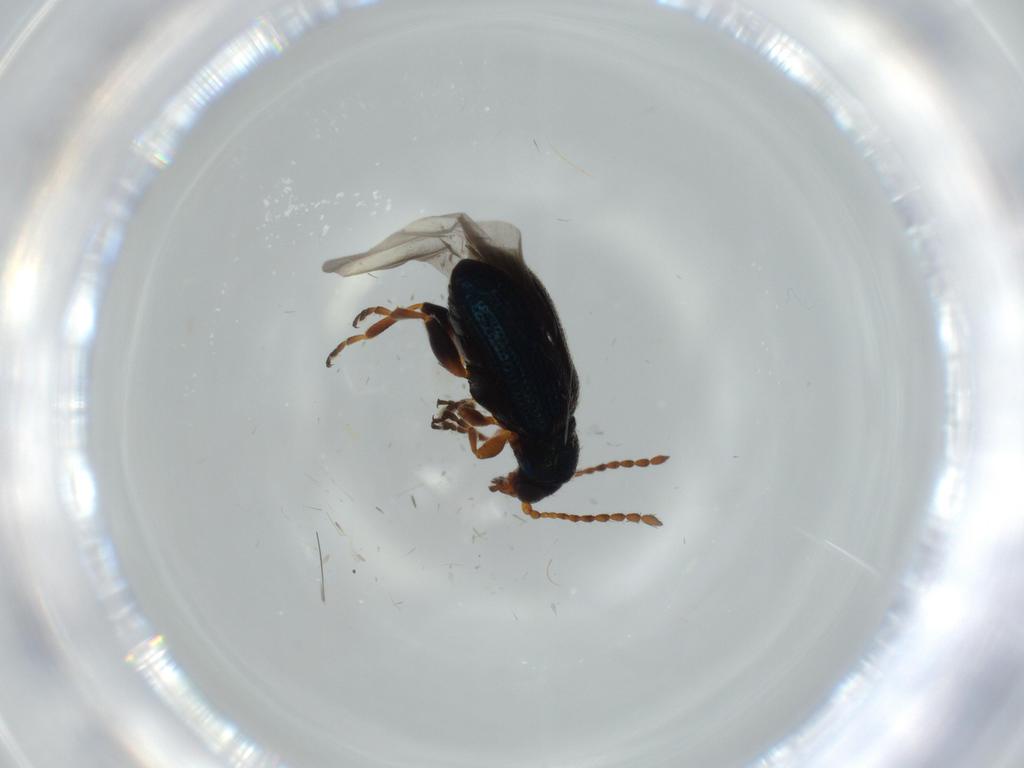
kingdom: Animalia
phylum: Arthropoda
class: Insecta
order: Coleoptera
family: Chrysomelidae
